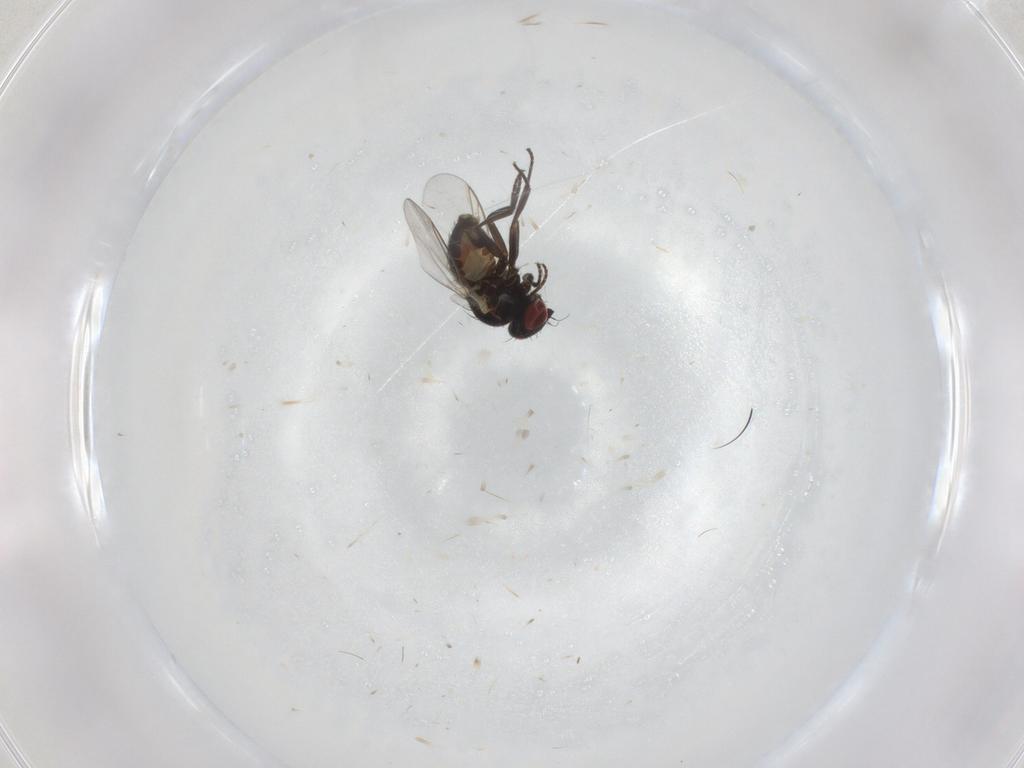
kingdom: Animalia
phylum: Arthropoda
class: Insecta
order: Diptera
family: Agromyzidae
